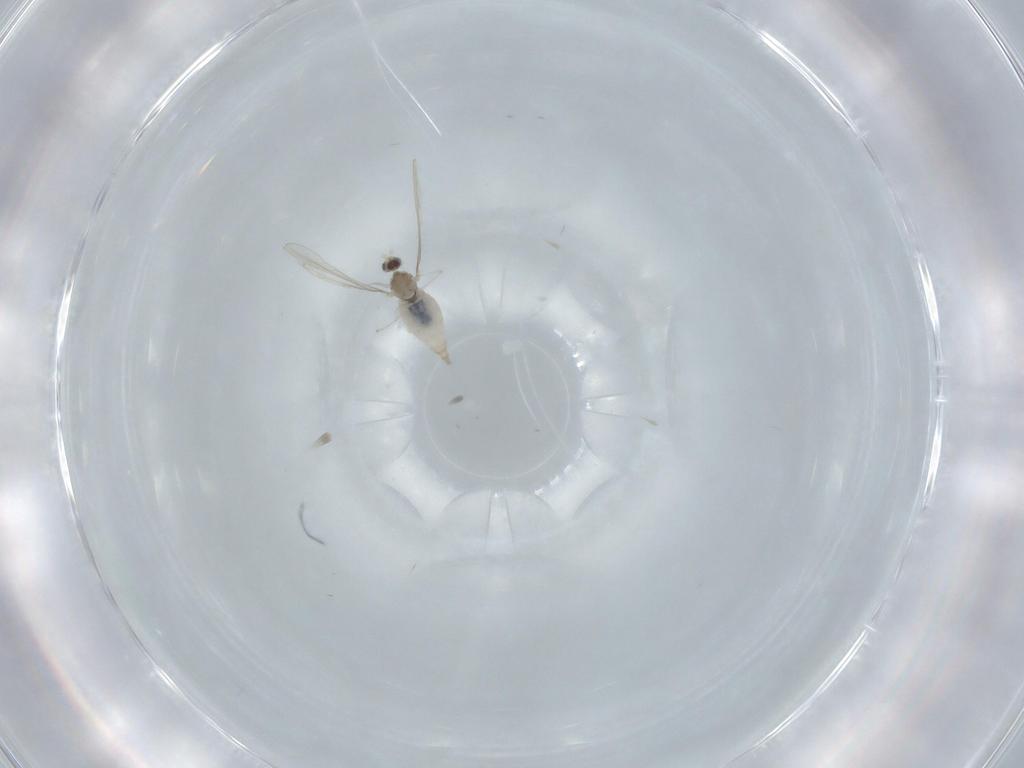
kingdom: Animalia
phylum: Arthropoda
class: Insecta
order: Diptera
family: Cecidomyiidae
